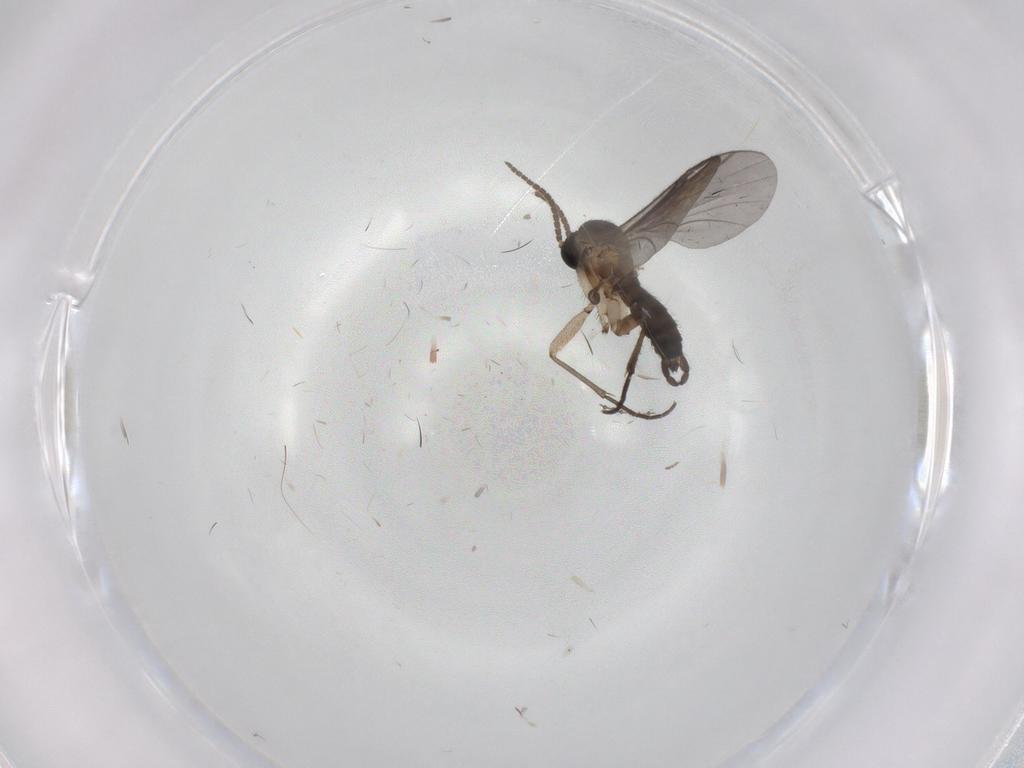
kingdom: Animalia
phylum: Arthropoda
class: Insecta
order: Diptera
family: Cecidomyiidae
